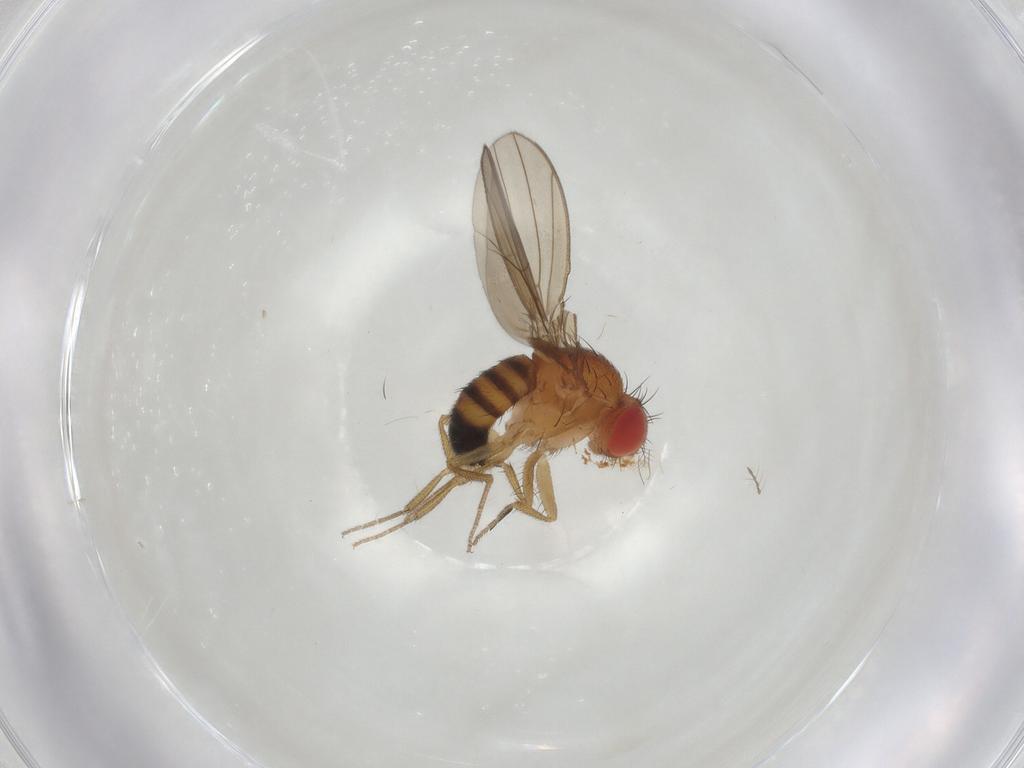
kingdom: Animalia
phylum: Arthropoda
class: Insecta
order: Diptera
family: Drosophilidae
